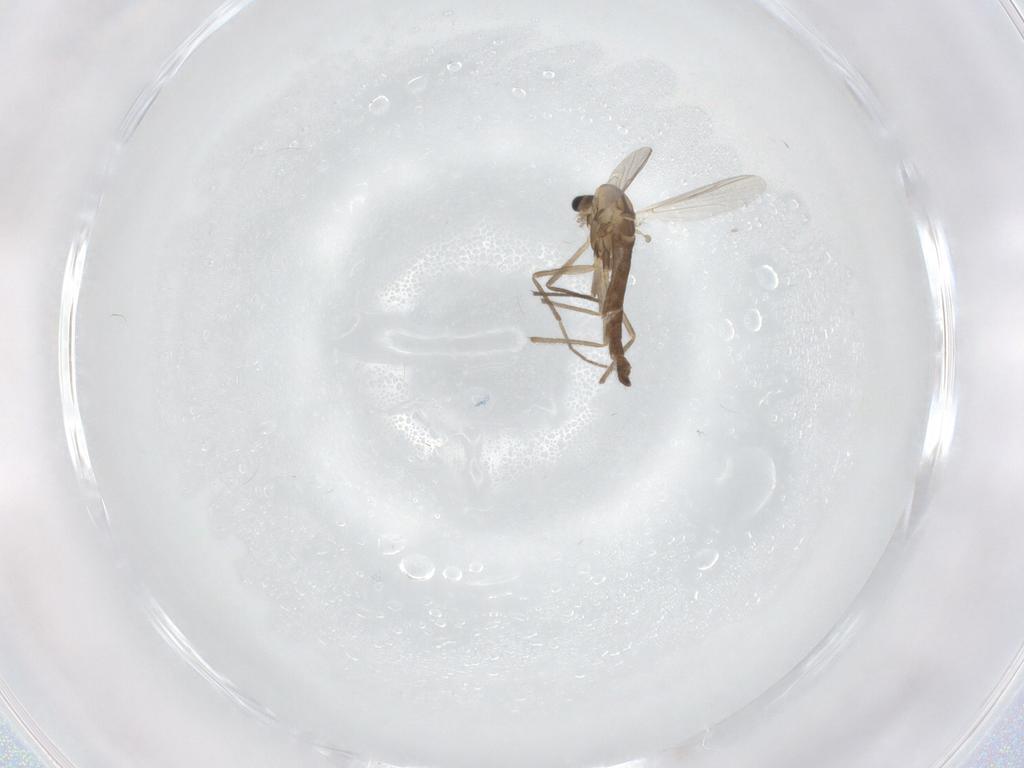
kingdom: Animalia
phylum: Arthropoda
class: Insecta
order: Diptera
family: Chironomidae
